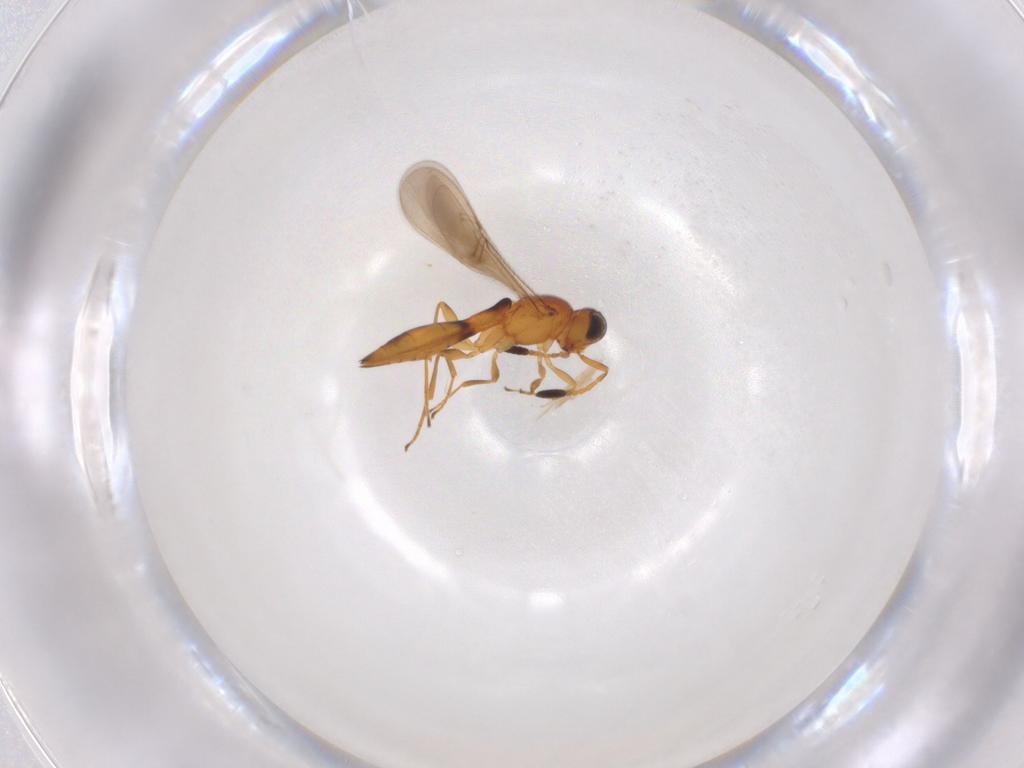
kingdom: Animalia
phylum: Arthropoda
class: Insecta
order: Hymenoptera
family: Scelionidae
